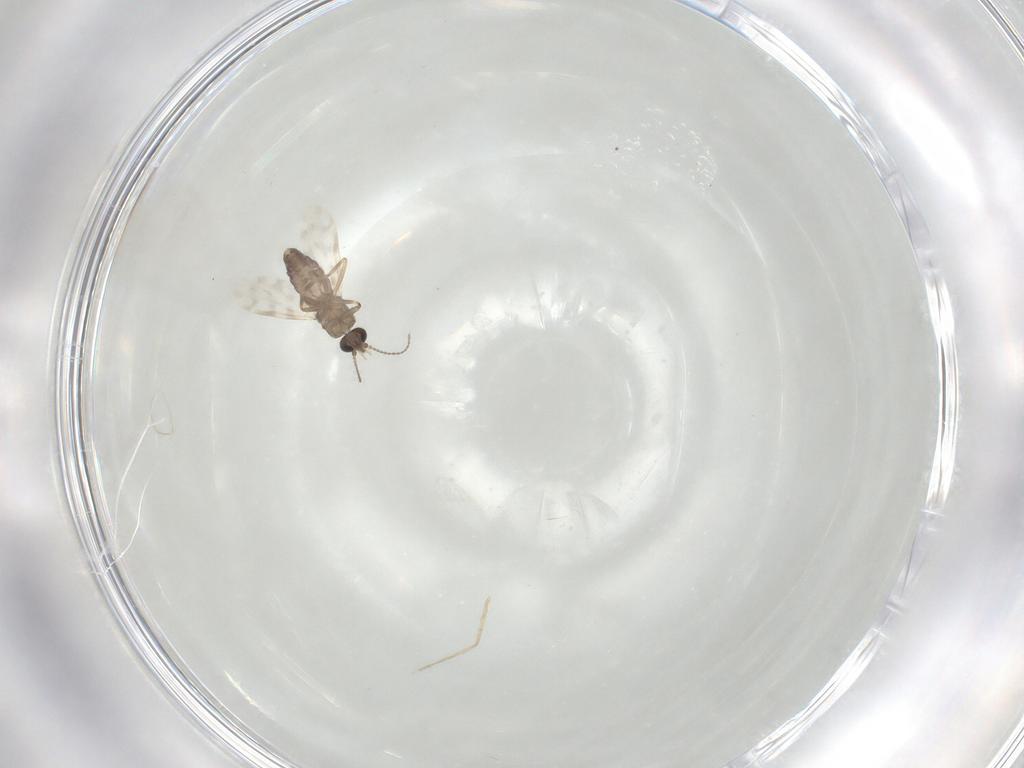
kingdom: Animalia
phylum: Arthropoda
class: Insecta
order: Diptera
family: Ceratopogonidae
